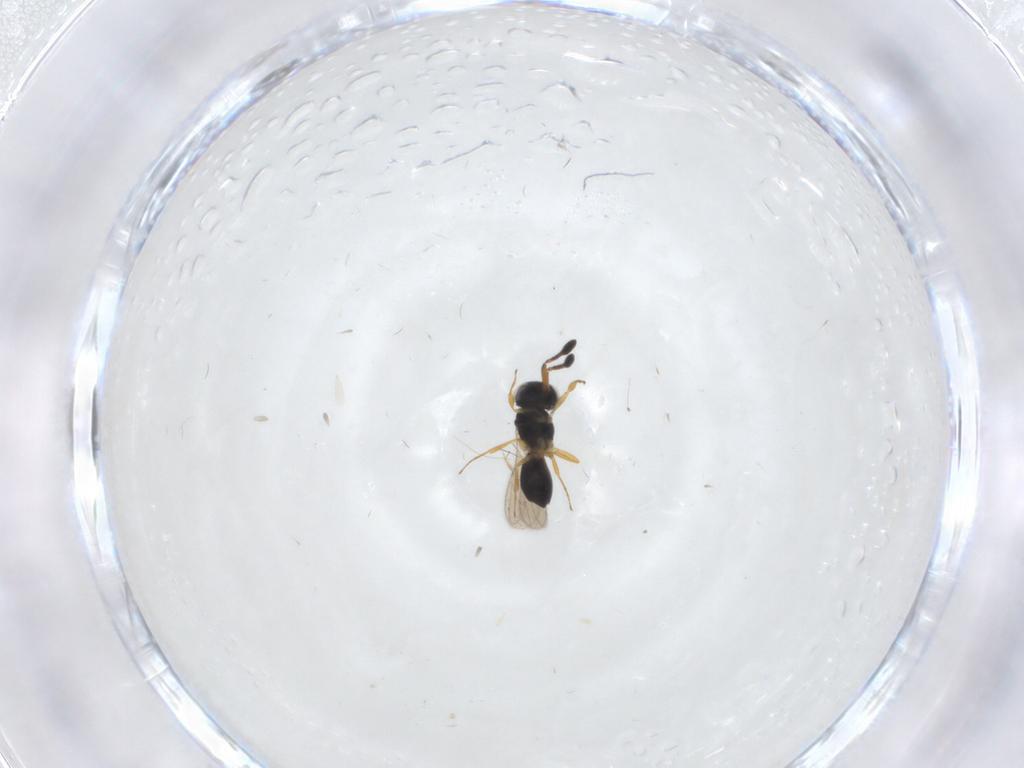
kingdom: Animalia
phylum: Arthropoda
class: Insecta
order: Hymenoptera
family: Scelionidae
